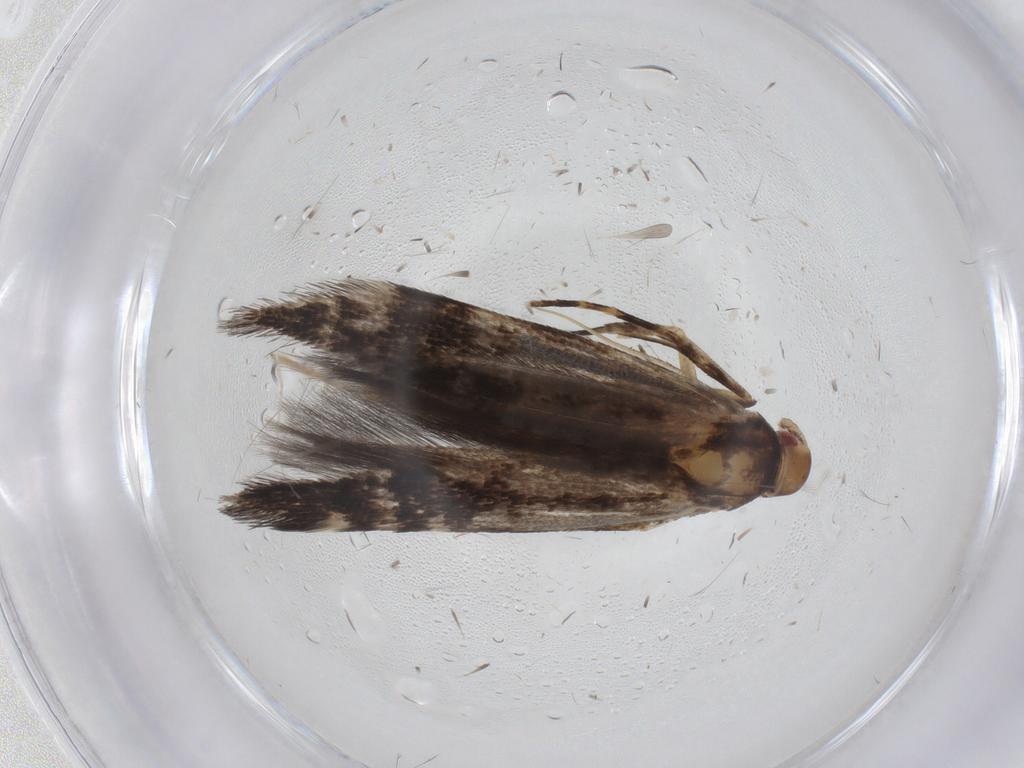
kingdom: Animalia
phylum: Arthropoda
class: Insecta
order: Lepidoptera
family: Cosmopterigidae
